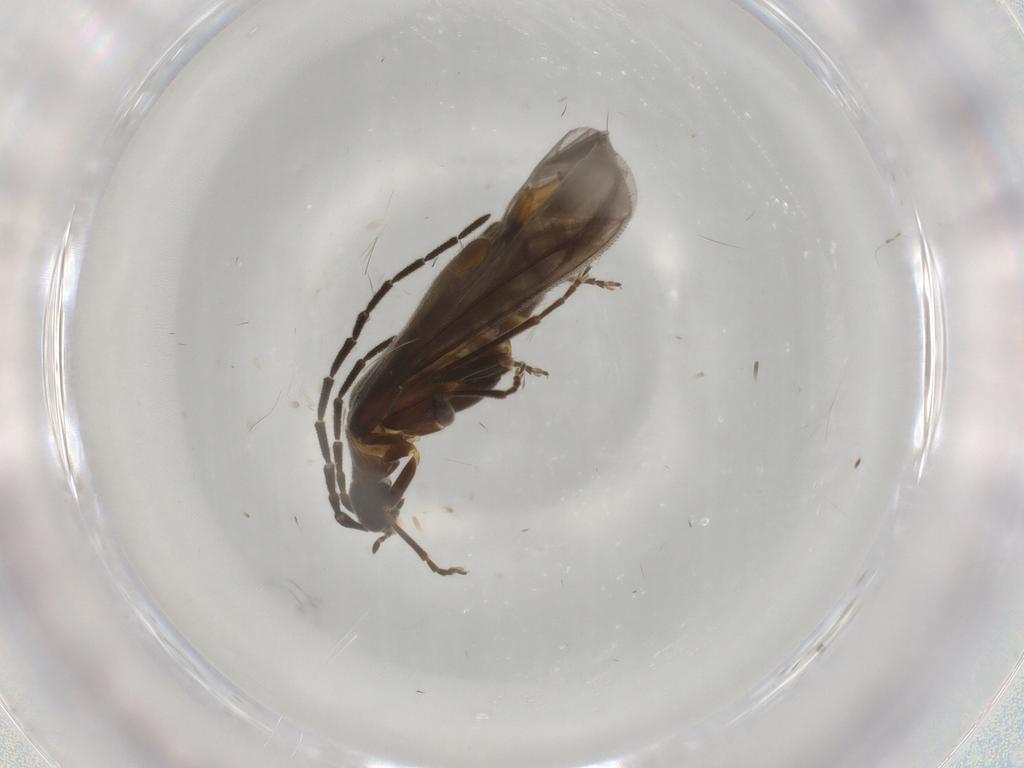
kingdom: Animalia
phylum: Arthropoda
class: Insecta
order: Coleoptera
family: Cantharidae
